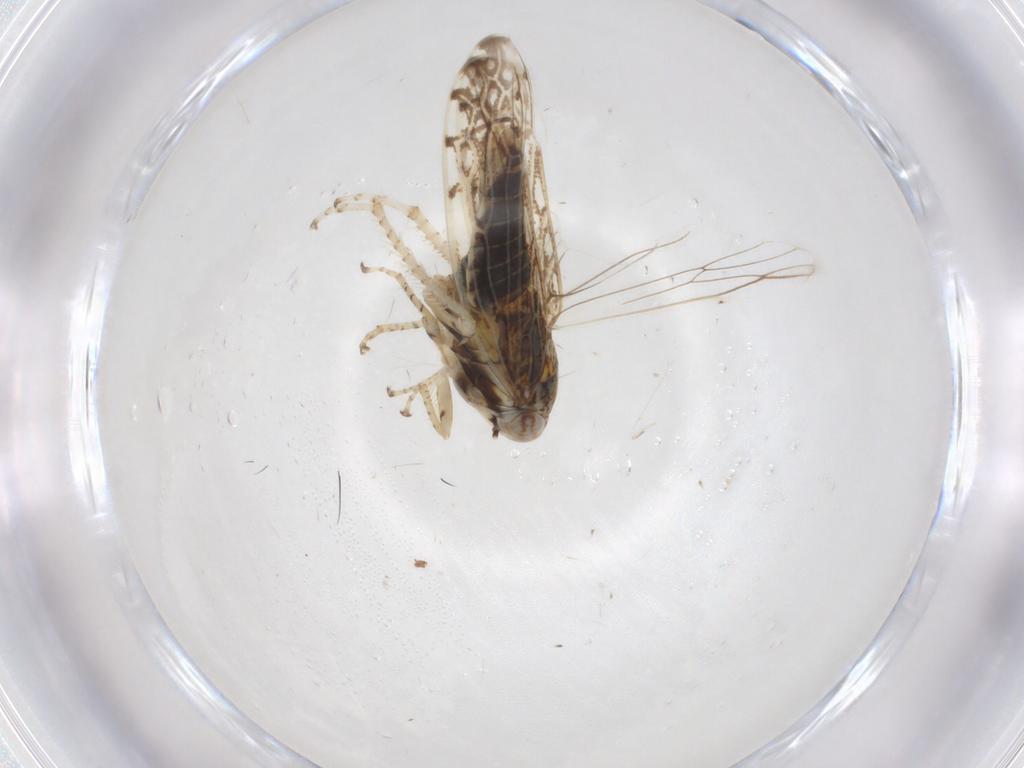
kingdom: Animalia
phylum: Arthropoda
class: Insecta
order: Hemiptera
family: Cicadellidae
